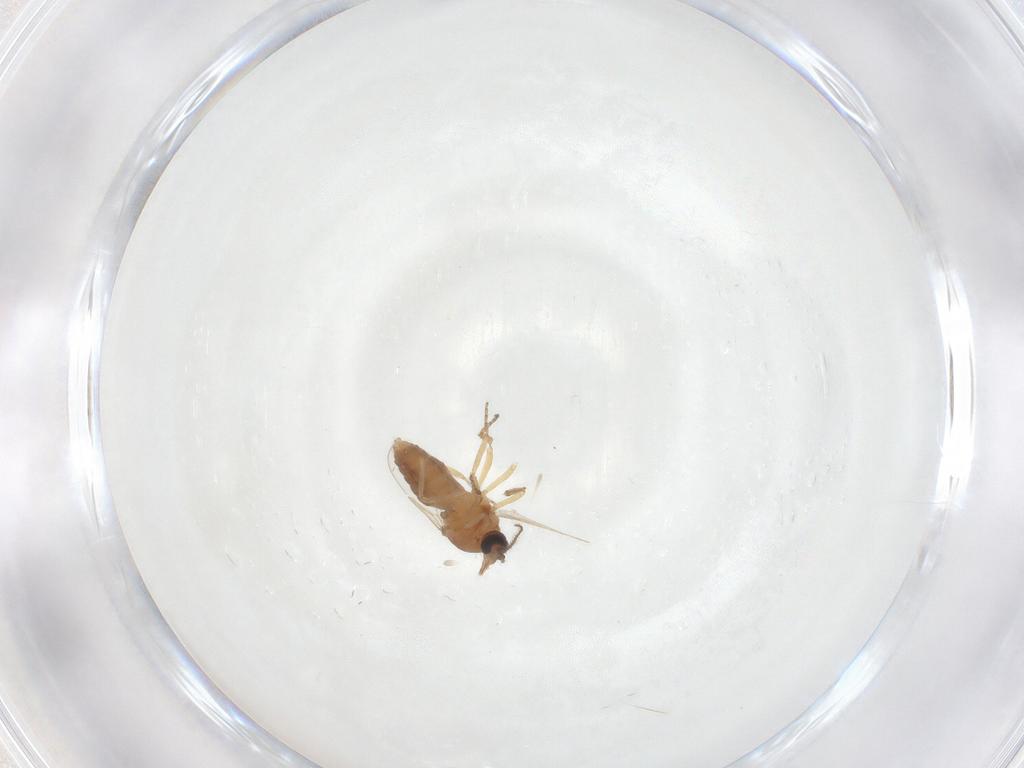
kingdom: Animalia
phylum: Arthropoda
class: Insecta
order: Diptera
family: Ceratopogonidae
